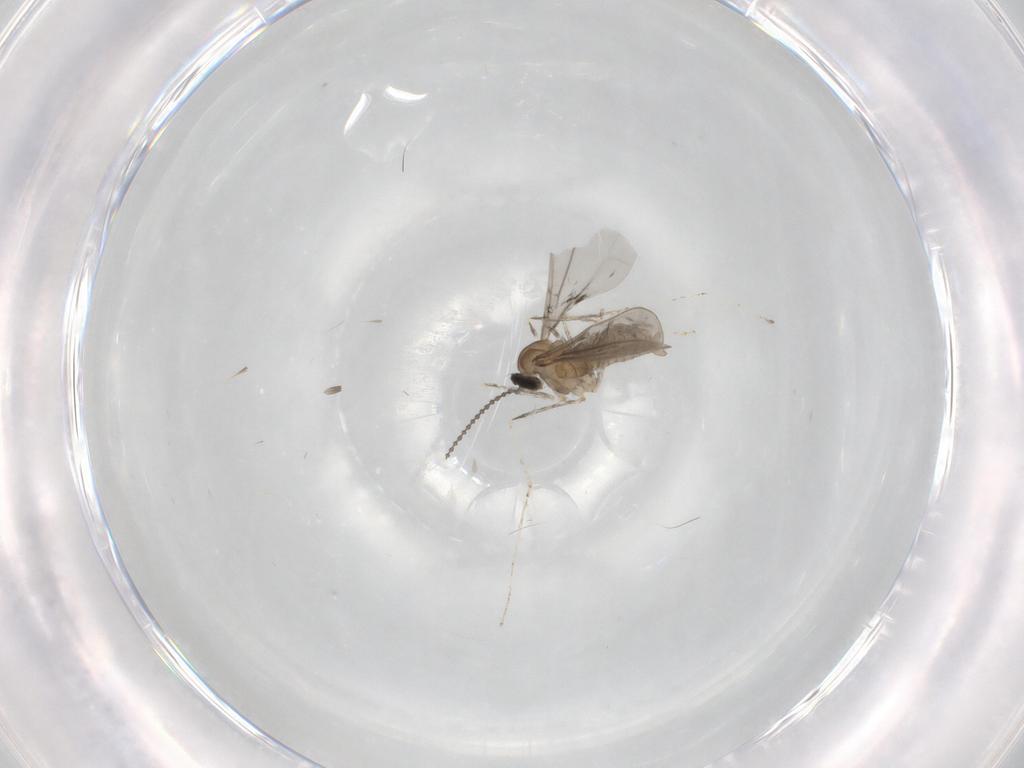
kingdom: Animalia
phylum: Arthropoda
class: Insecta
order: Diptera
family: Cecidomyiidae
